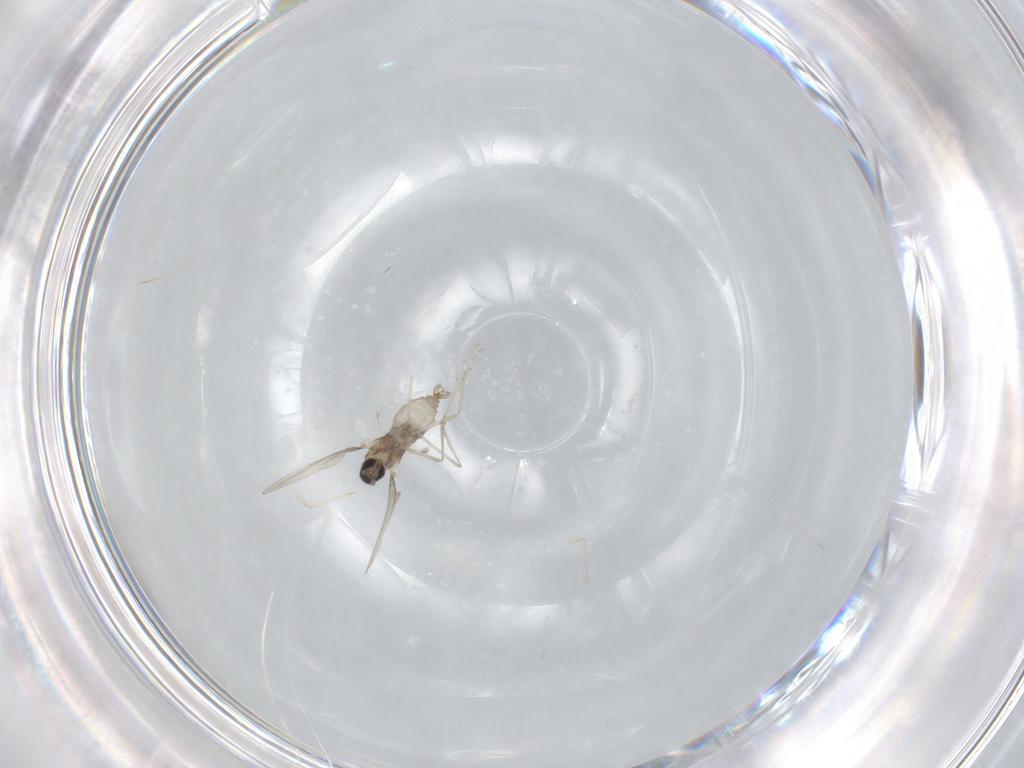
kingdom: Animalia
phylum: Arthropoda
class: Insecta
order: Diptera
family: Cecidomyiidae
